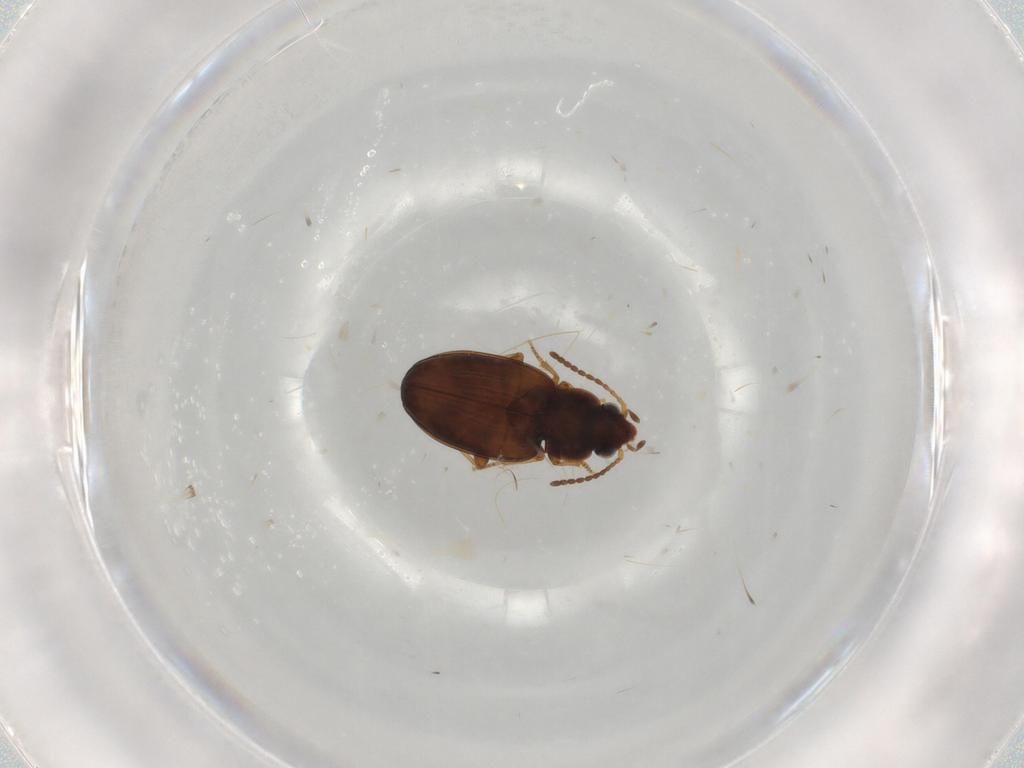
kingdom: Animalia
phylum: Arthropoda
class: Insecta
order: Coleoptera
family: Carabidae
